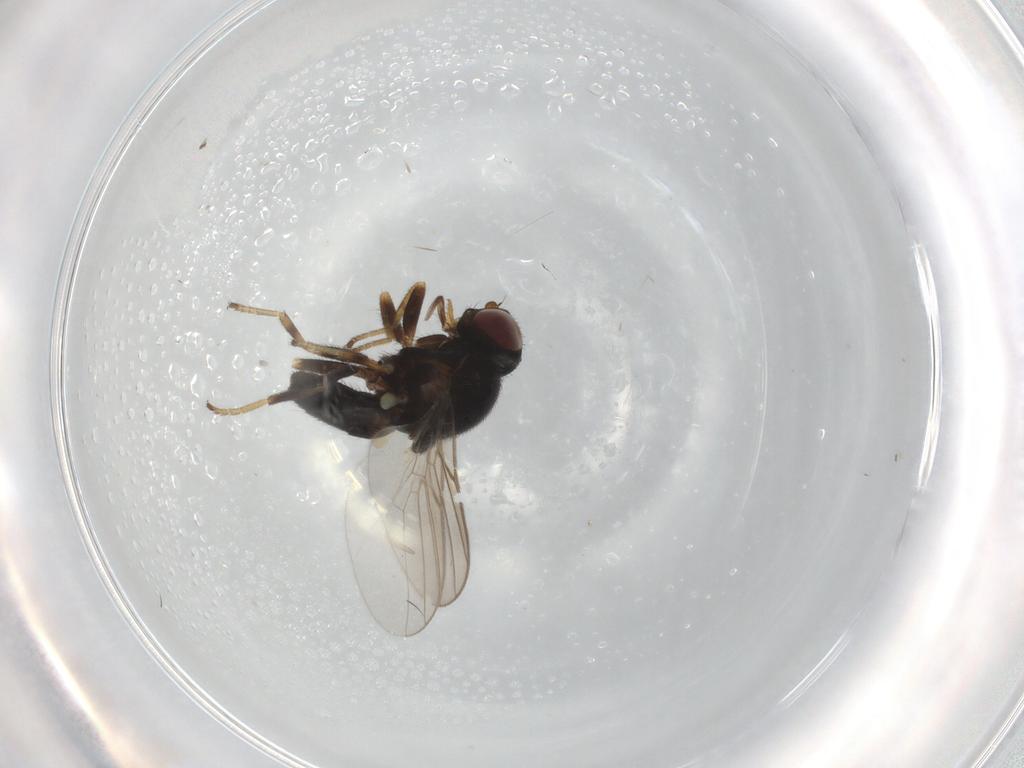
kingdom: Animalia
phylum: Arthropoda
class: Insecta
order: Diptera
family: Chloropidae
